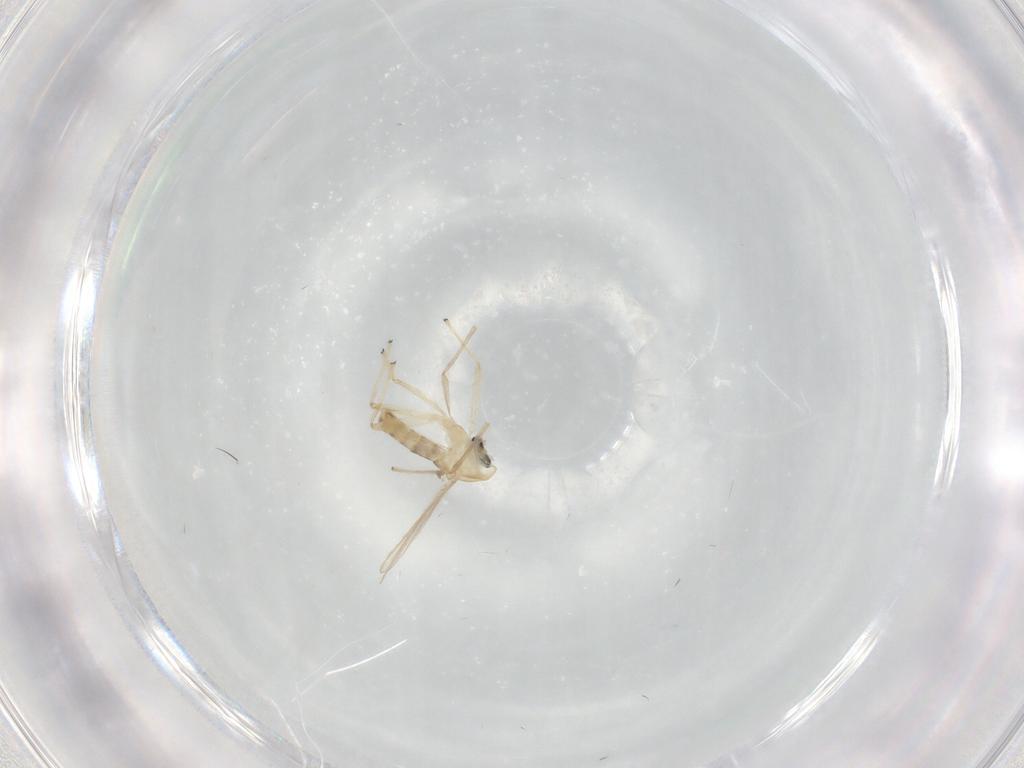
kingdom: Animalia
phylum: Arthropoda
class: Insecta
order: Diptera
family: Chironomidae
